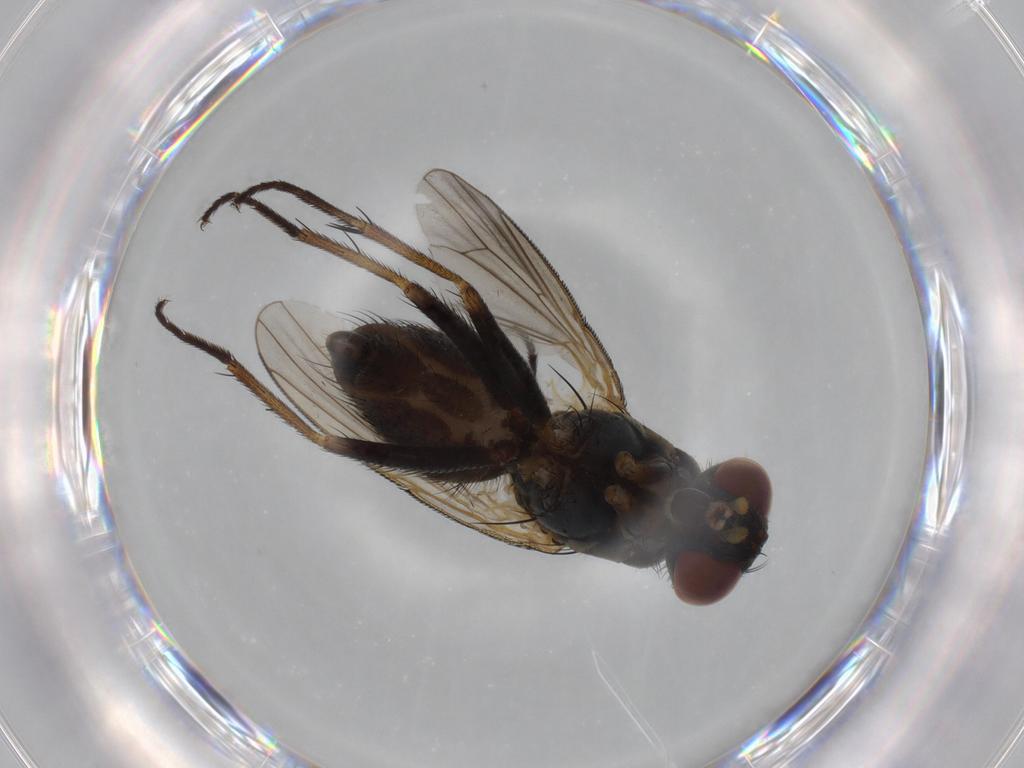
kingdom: Animalia
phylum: Arthropoda
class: Insecta
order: Diptera
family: Muscidae
